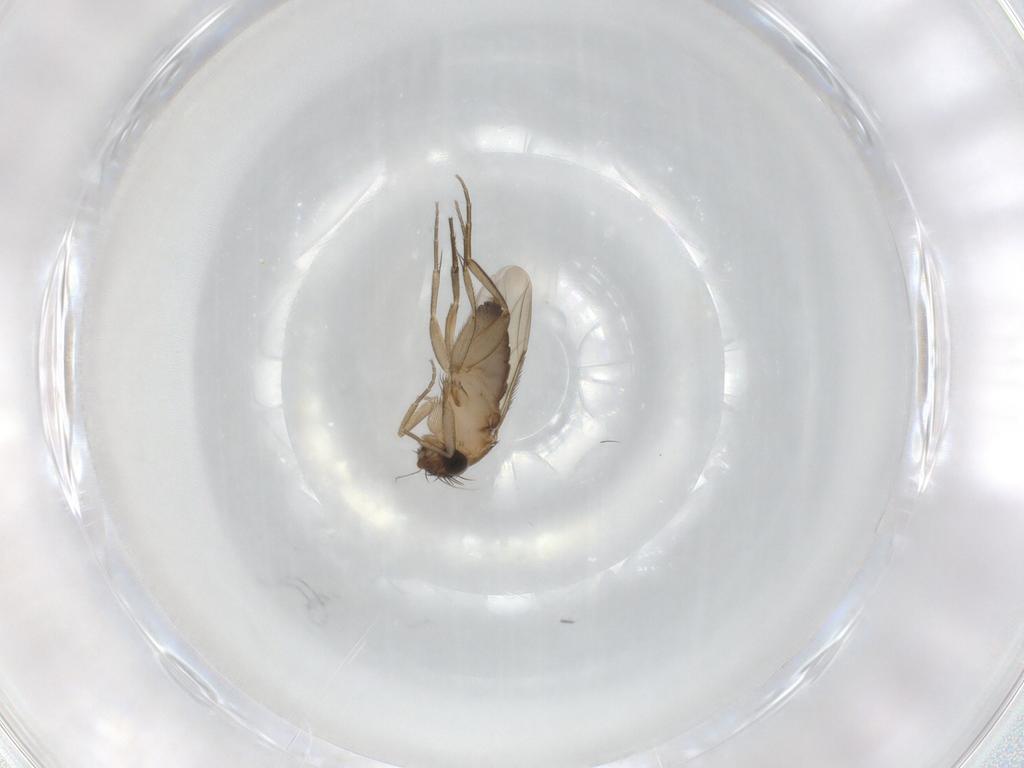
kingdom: Animalia
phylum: Arthropoda
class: Insecta
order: Diptera
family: Phoridae
